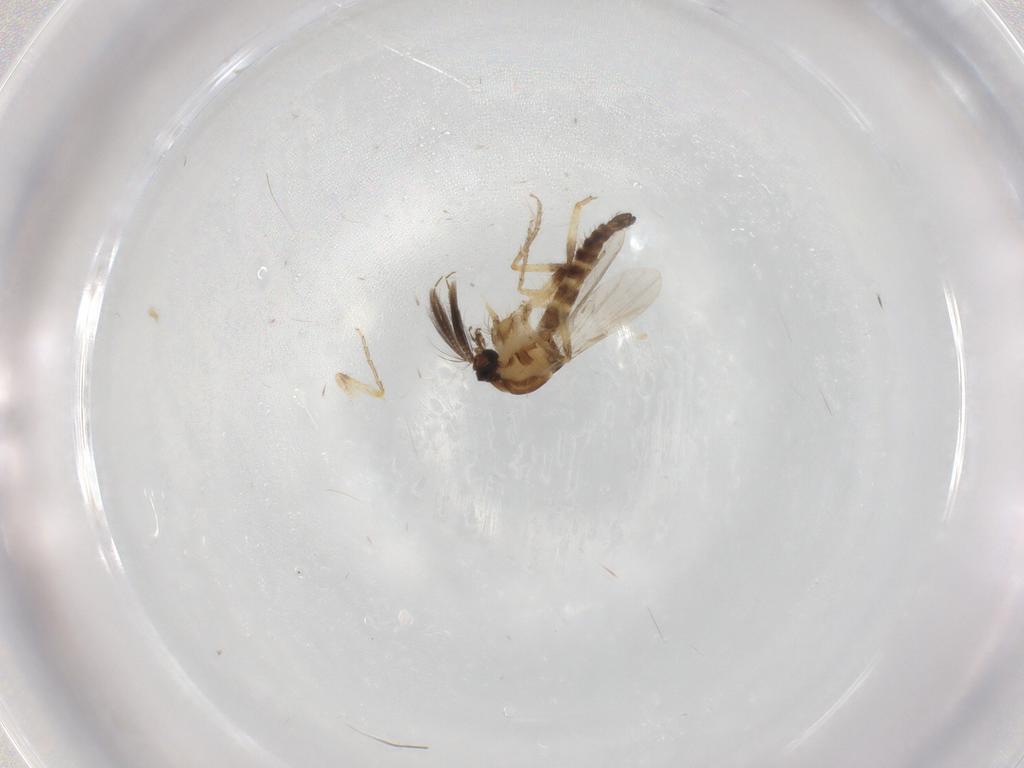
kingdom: Animalia
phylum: Arthropoda
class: Insecta
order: Diptera
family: Ceratopogonidae
